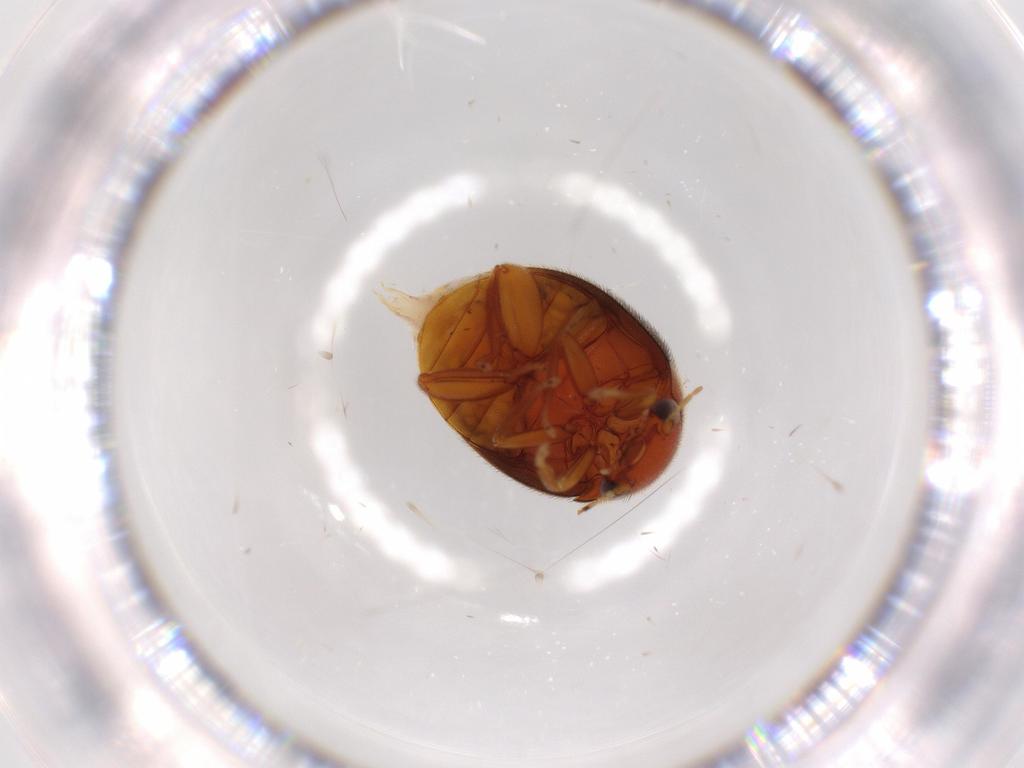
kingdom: Animalia
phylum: Arthropoda
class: Insecta
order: Coleoptera
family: Scirtidae
